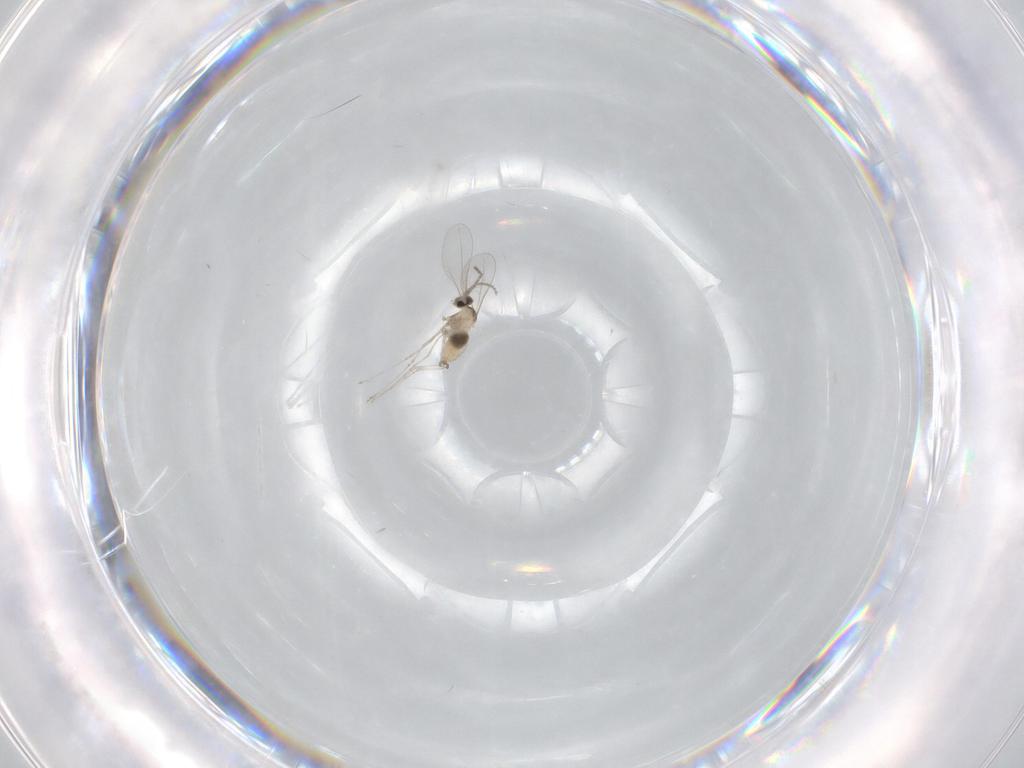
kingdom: Animalia
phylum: Arthropoda
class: Insecta
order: Diptera
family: Cecidomyiidae
